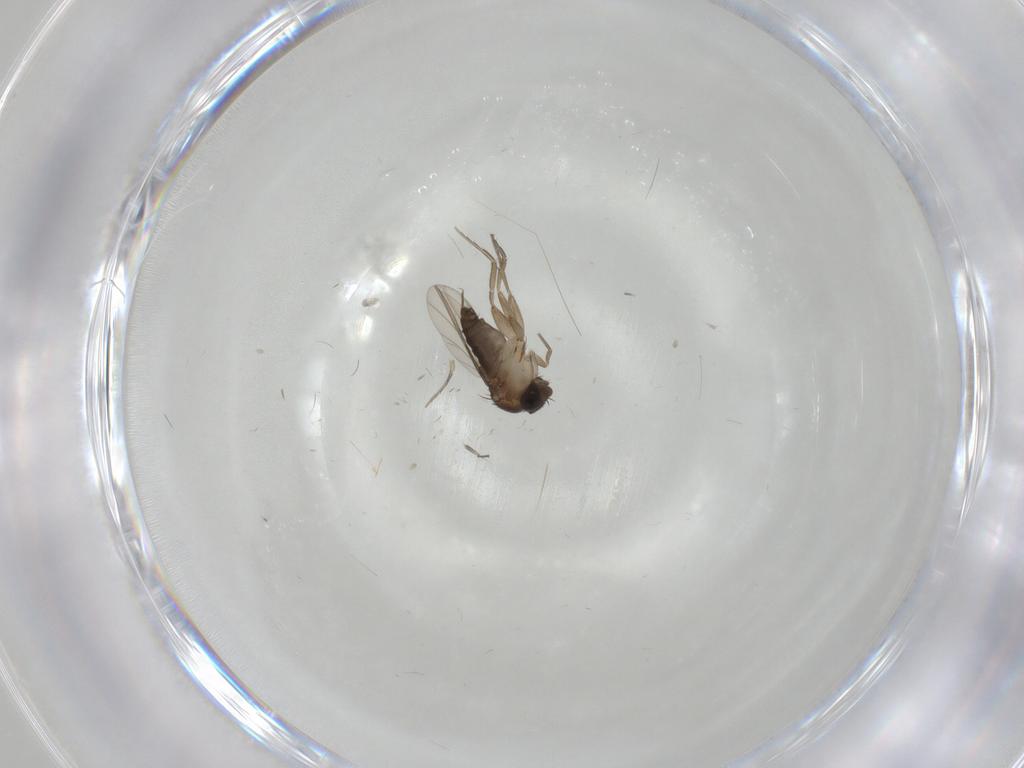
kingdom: Animalia
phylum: Arthropoda
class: Insecta
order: Diptera
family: Phoridae
